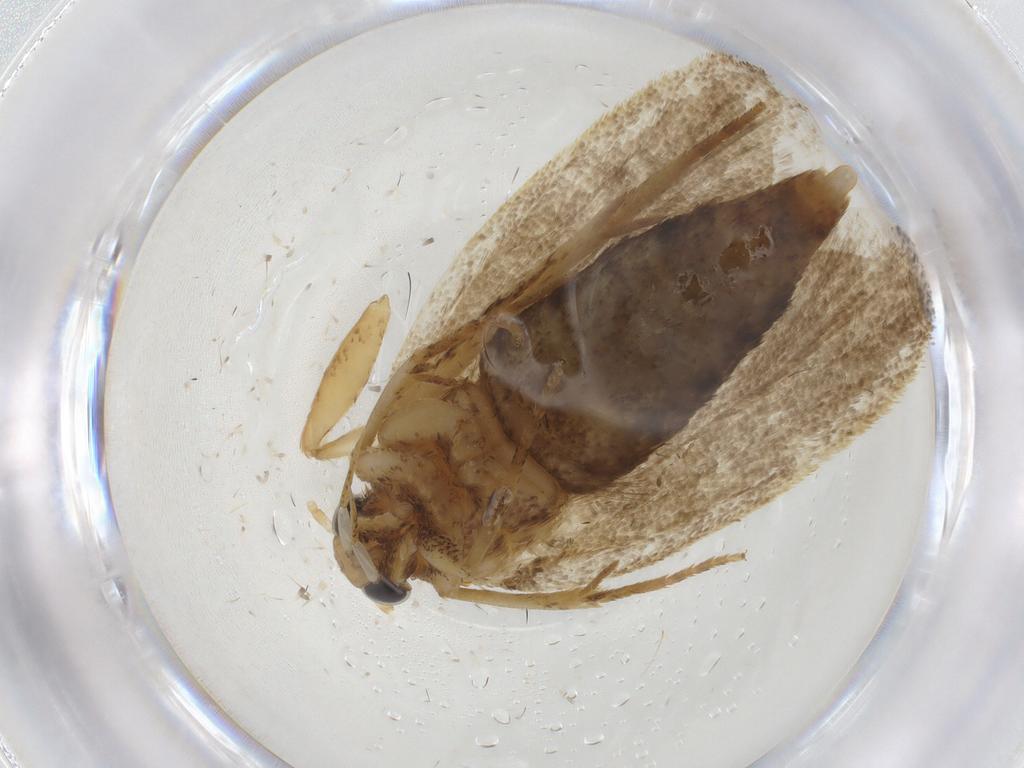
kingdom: Animalia
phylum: Arthropoda
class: Insecta
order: Lepidoptera
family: Depressariidae
